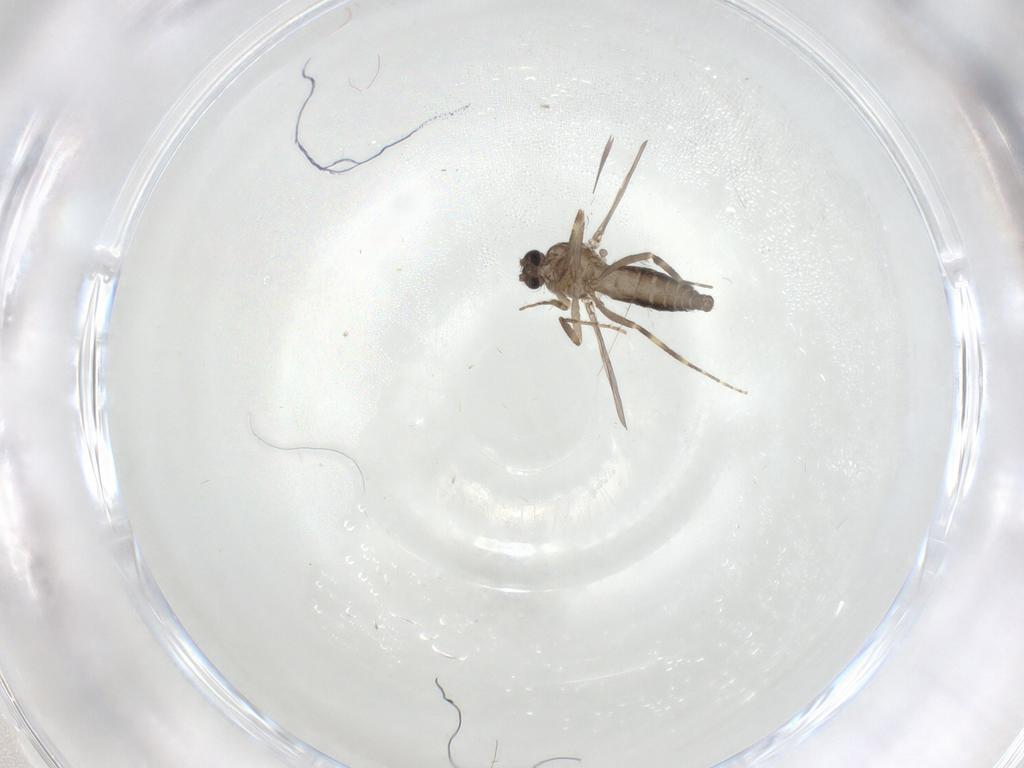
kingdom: Animalia
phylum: Arthropoda
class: Insecta
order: Diptera
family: Ceratopogonidae
